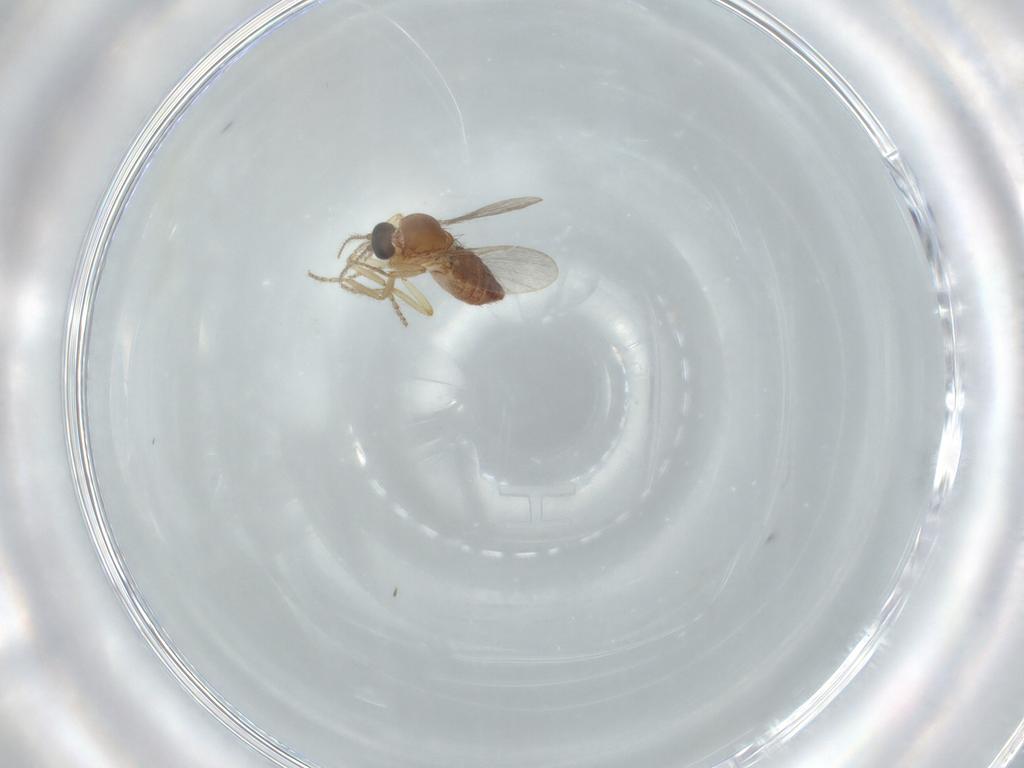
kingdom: Animalia
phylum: Arthropoda
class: Insecta
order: Diptera
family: Ceratopogonidae
